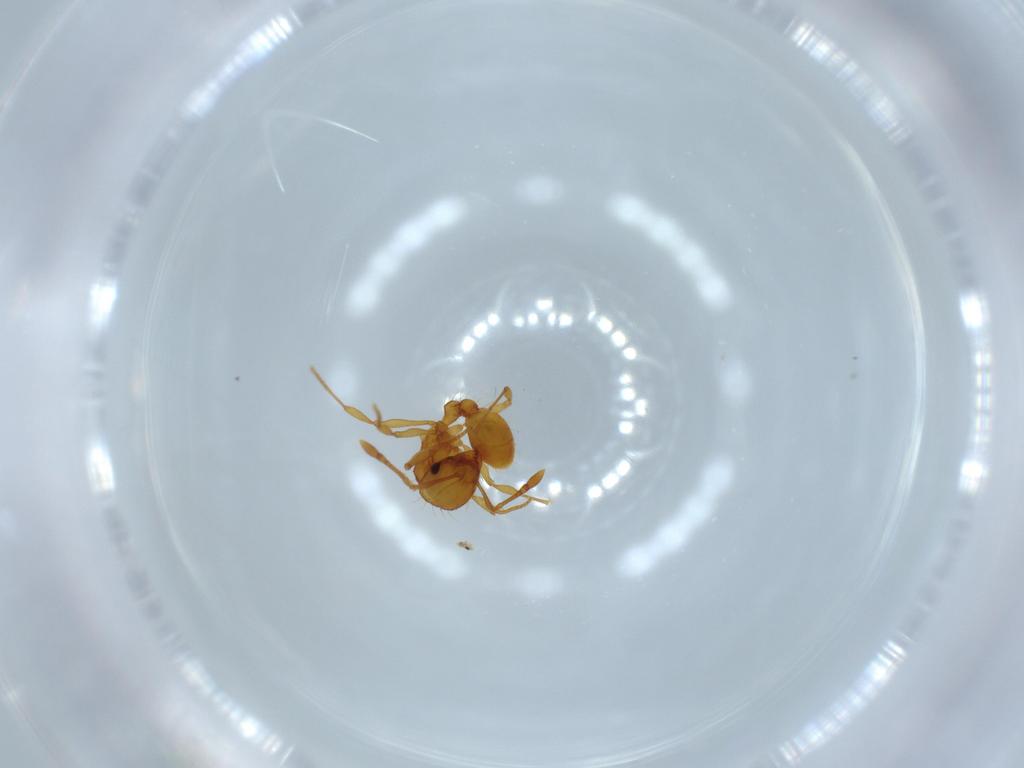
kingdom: Animalia
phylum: Arthropoda
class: Insecta
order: Hymenoptera
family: Formicidae
